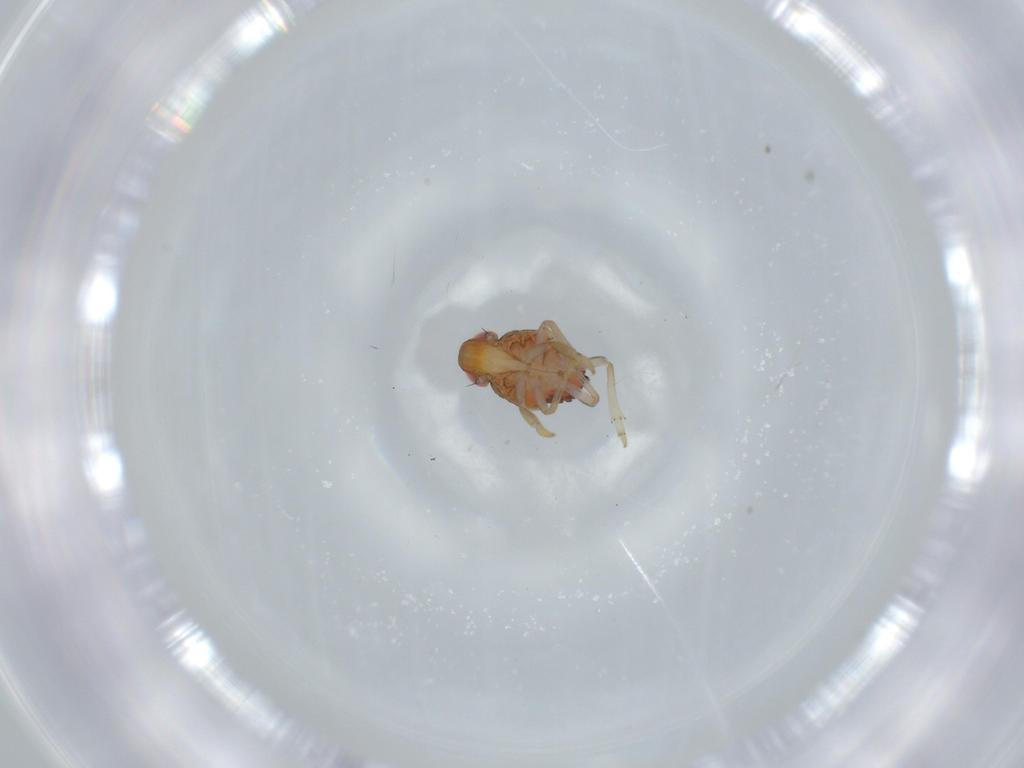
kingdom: Animalia
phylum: Arthropoda
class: Insecta
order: Hemiptera
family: Issidae
